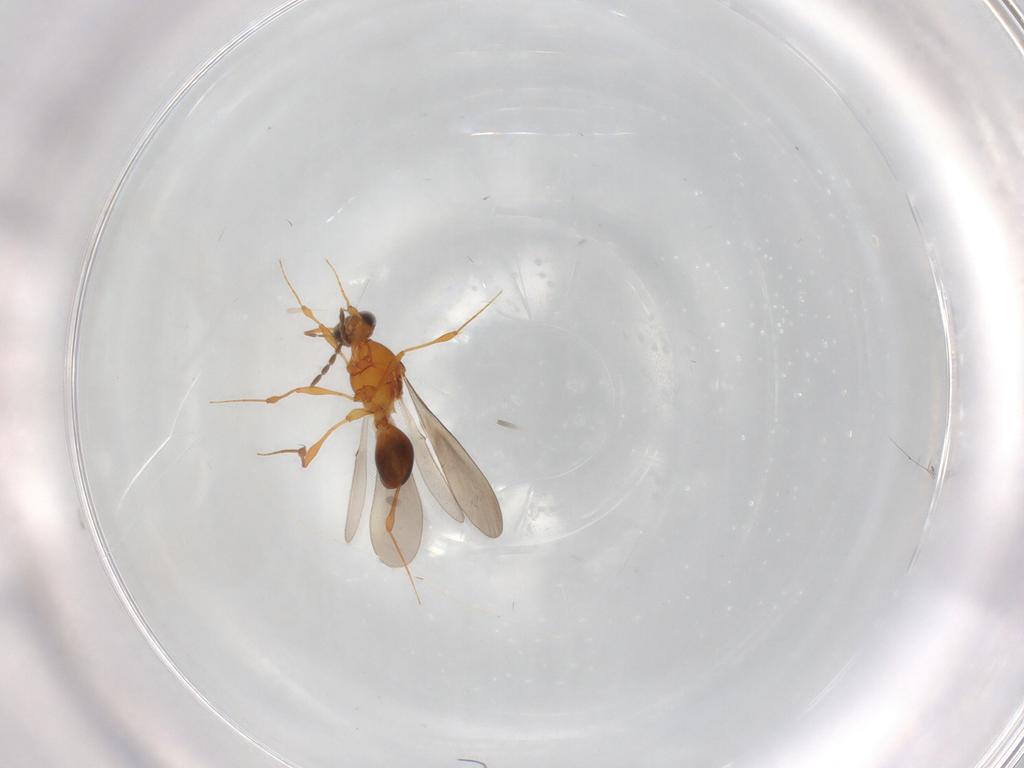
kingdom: Animalia
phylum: Arthropoda
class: Insecta
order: Hymenoptera
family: Platygastridae
